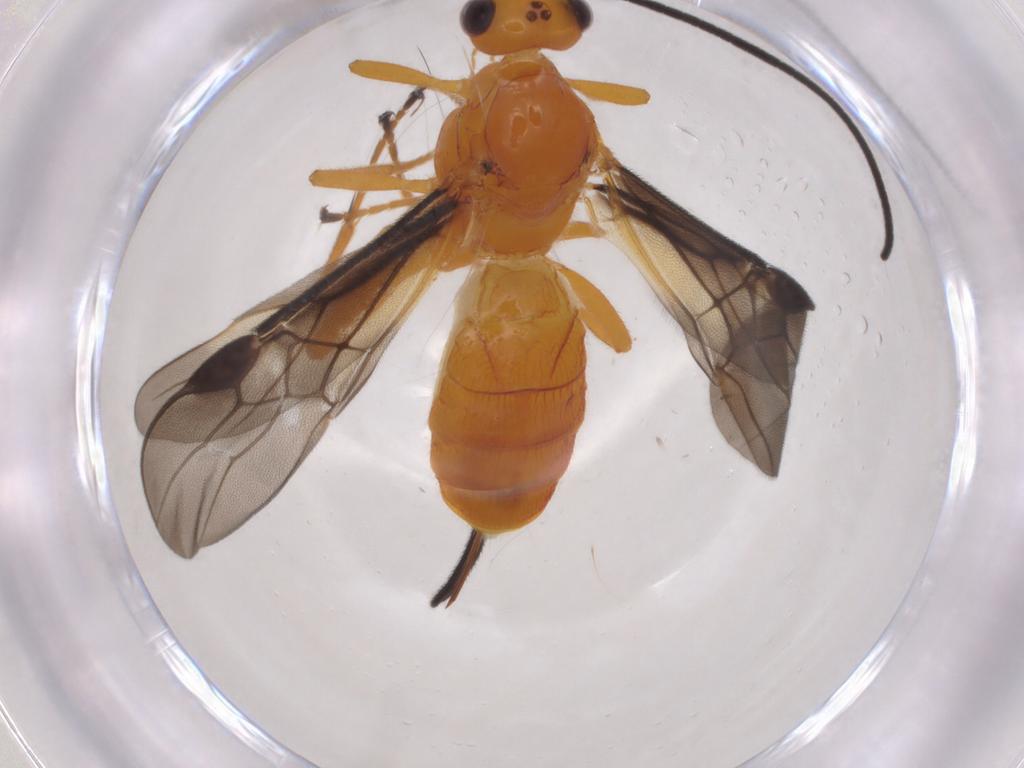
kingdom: Animalia
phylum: Arthropoda
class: Insecta
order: Hymenoptera
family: Braconidae
